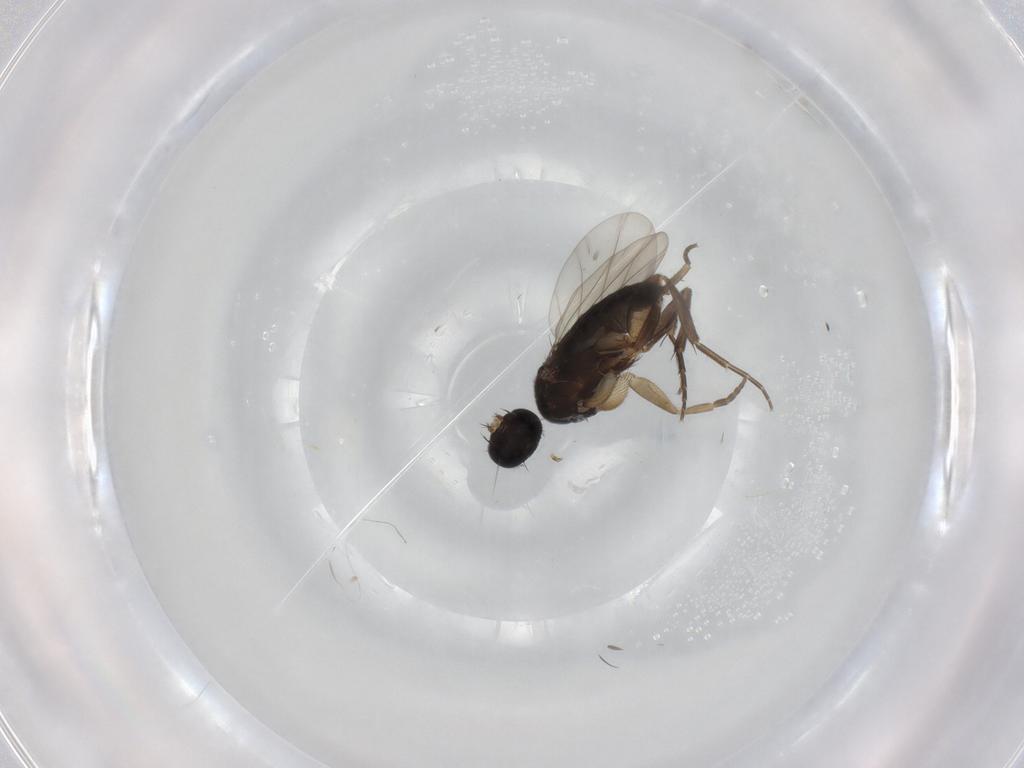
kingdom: Animalia
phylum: Arthropoda
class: Insecta
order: Diptera
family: Phoridae
